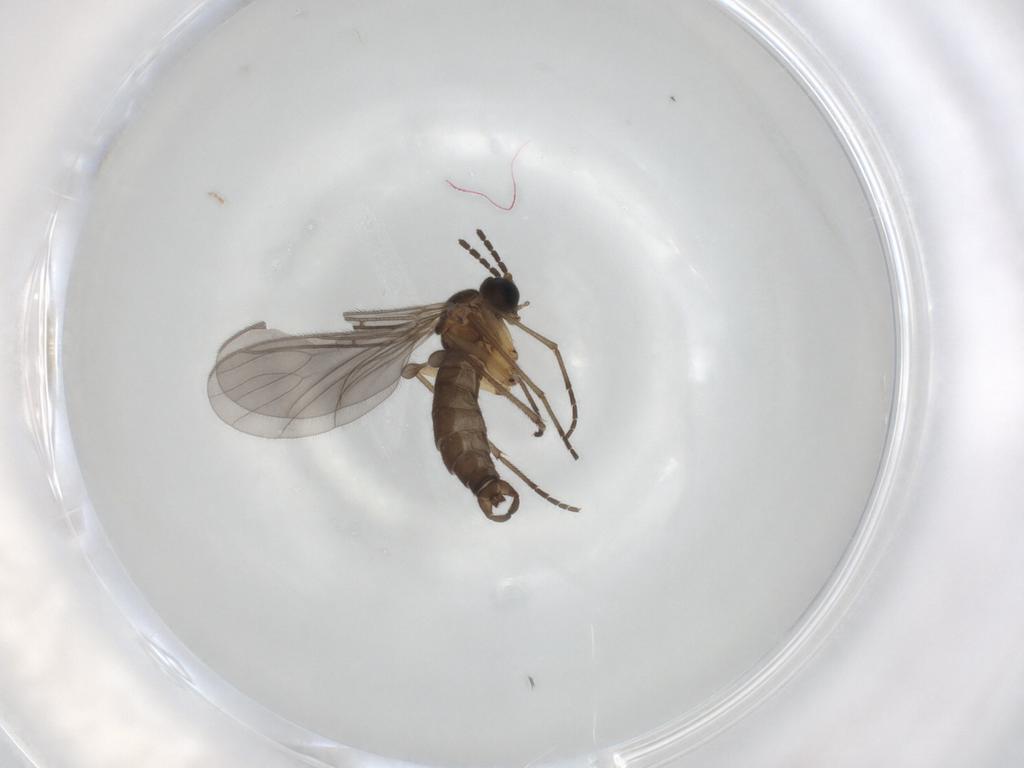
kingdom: Animalia
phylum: Arthropoda
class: Insecta
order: Diptera
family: Sciaridae
